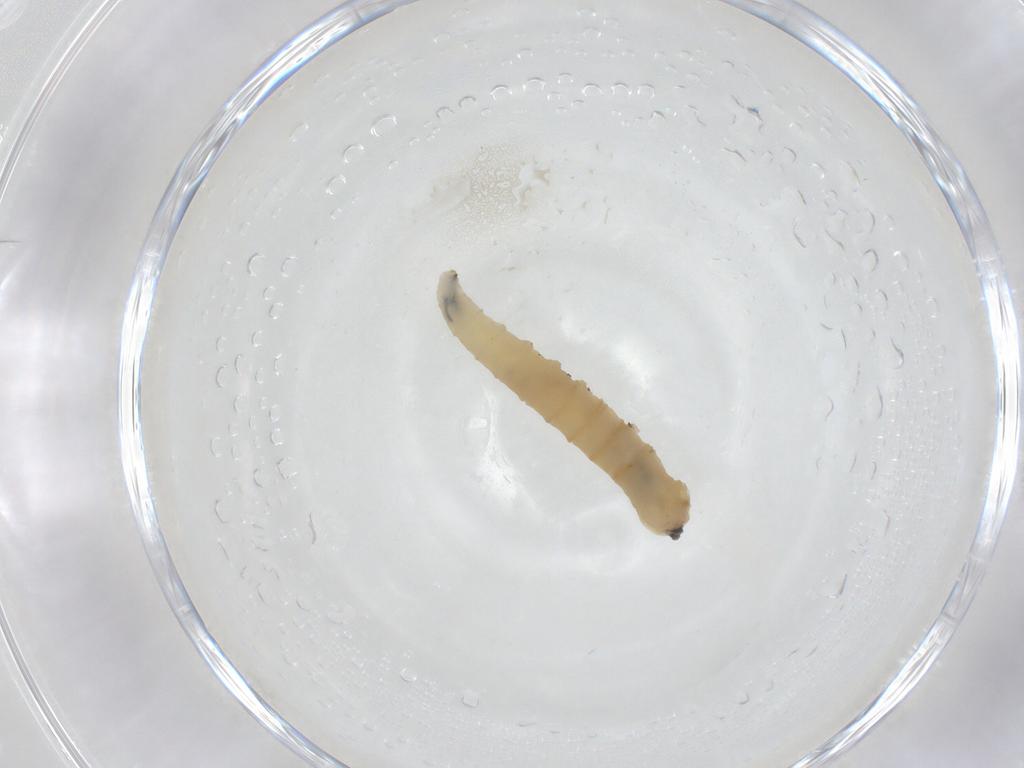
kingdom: Animalia
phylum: Arthropoda
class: Insecta
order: Diptera
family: Sphaeroceridae
